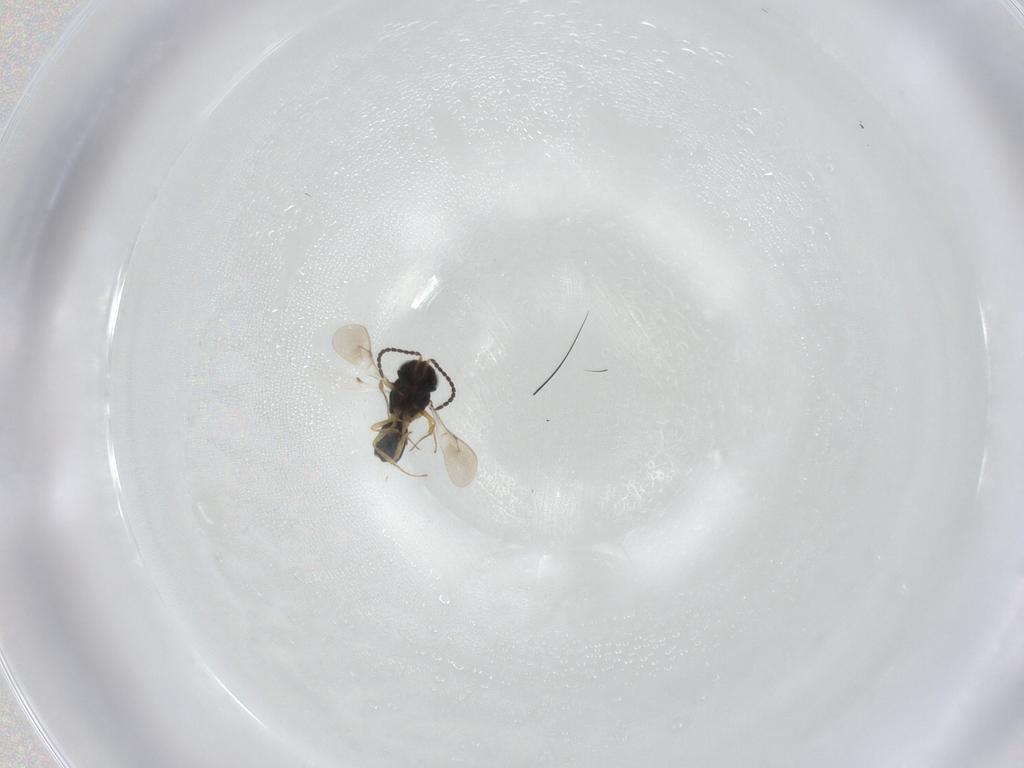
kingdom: Animalia
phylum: Arthropoda
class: Insecta
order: Hymenoptera
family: Scelionidae
